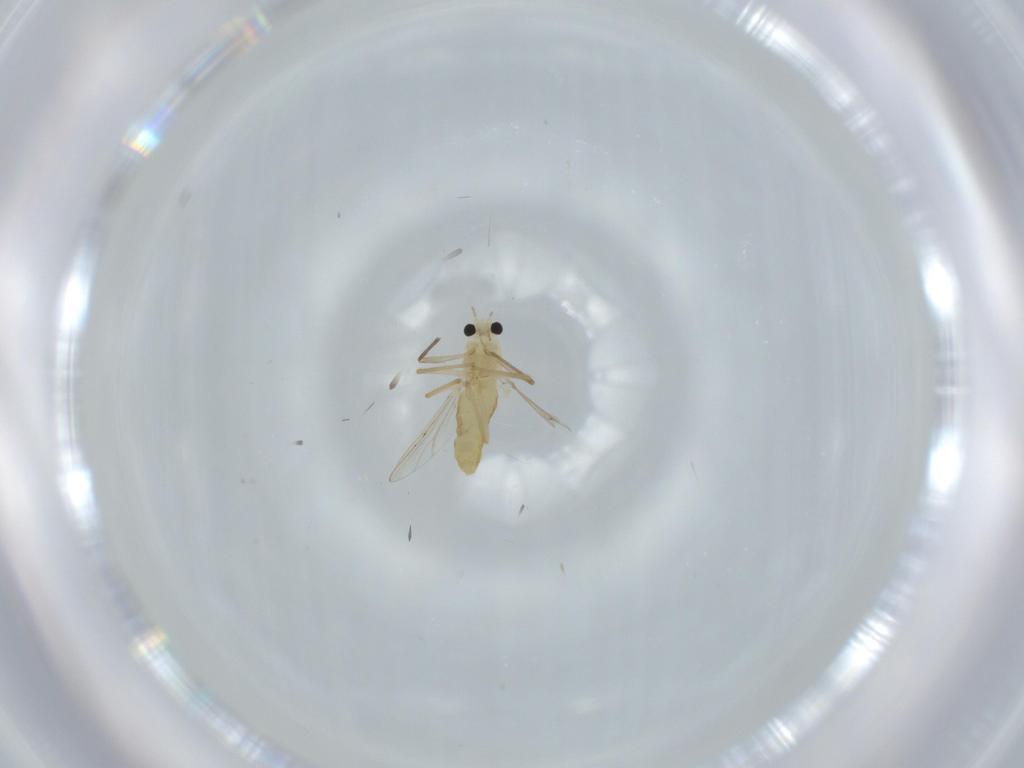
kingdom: Animalia
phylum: Arthropoda
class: Insecta
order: Diptera
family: Chironomidae
